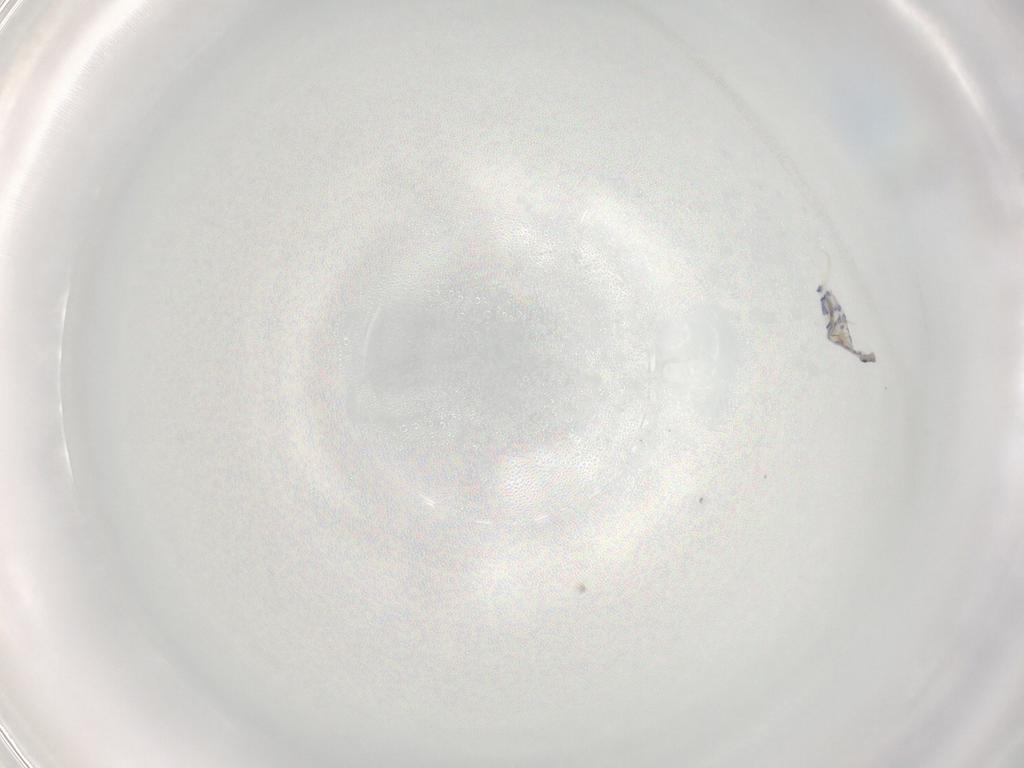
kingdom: Animalia
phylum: Arthropoda
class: Collembola
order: Entomobryomorpha
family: Entomobryidae
